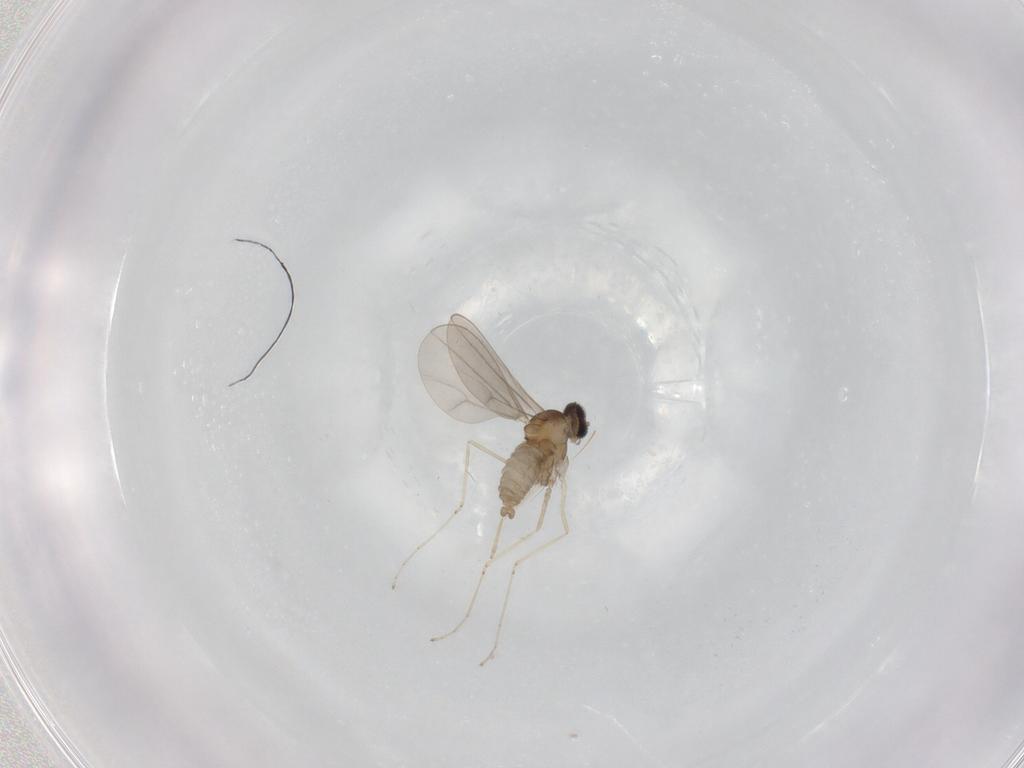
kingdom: Animalia
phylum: Arthropoda
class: Insecta
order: Diptera
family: Cecidomyiidae
